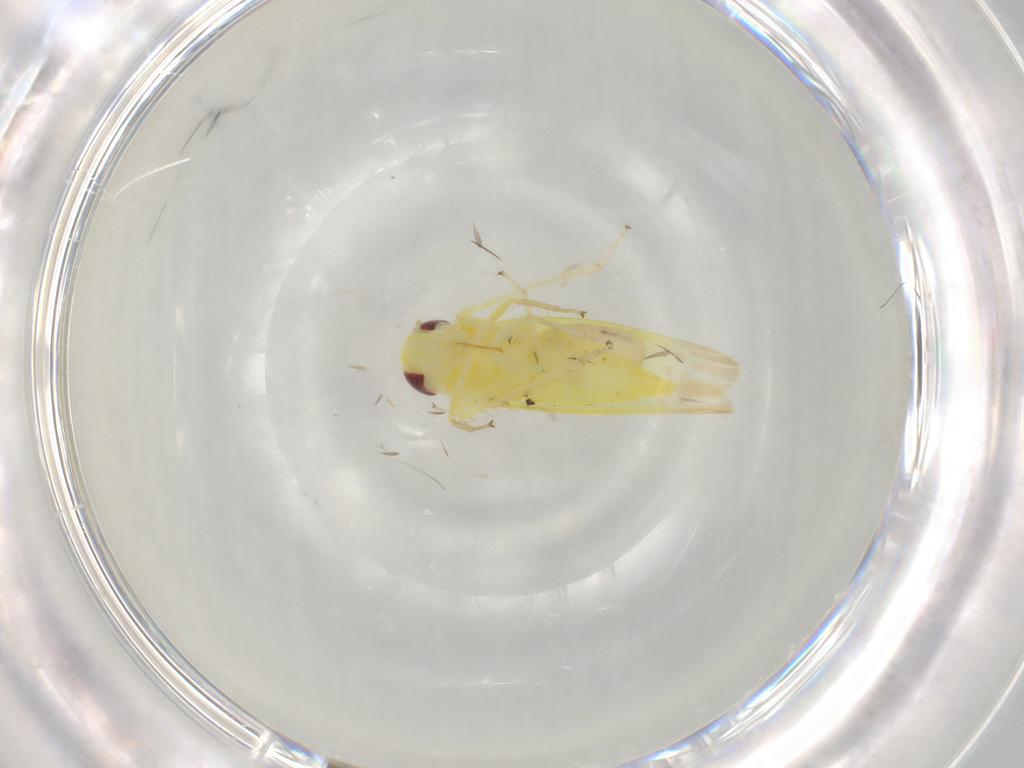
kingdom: Animalia
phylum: Arthropoda
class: Insecta
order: Hemiptera
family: Cicadellidae
